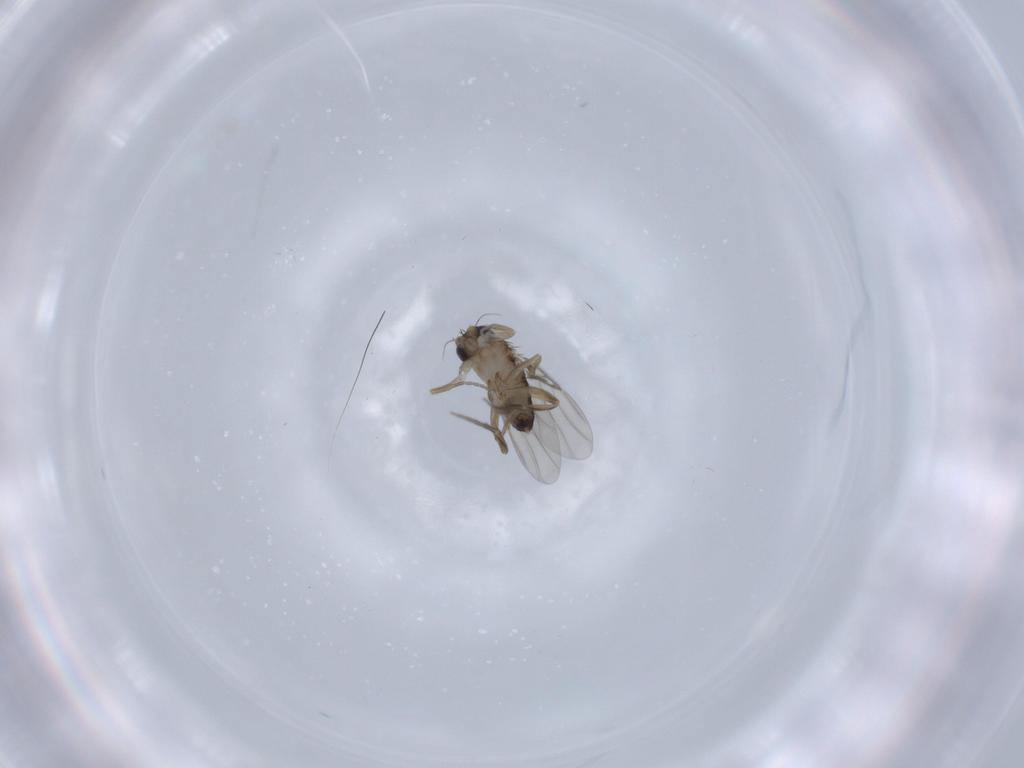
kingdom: Animalia
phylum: Arthropoda
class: Insecta
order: Diptera
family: Phoridae
